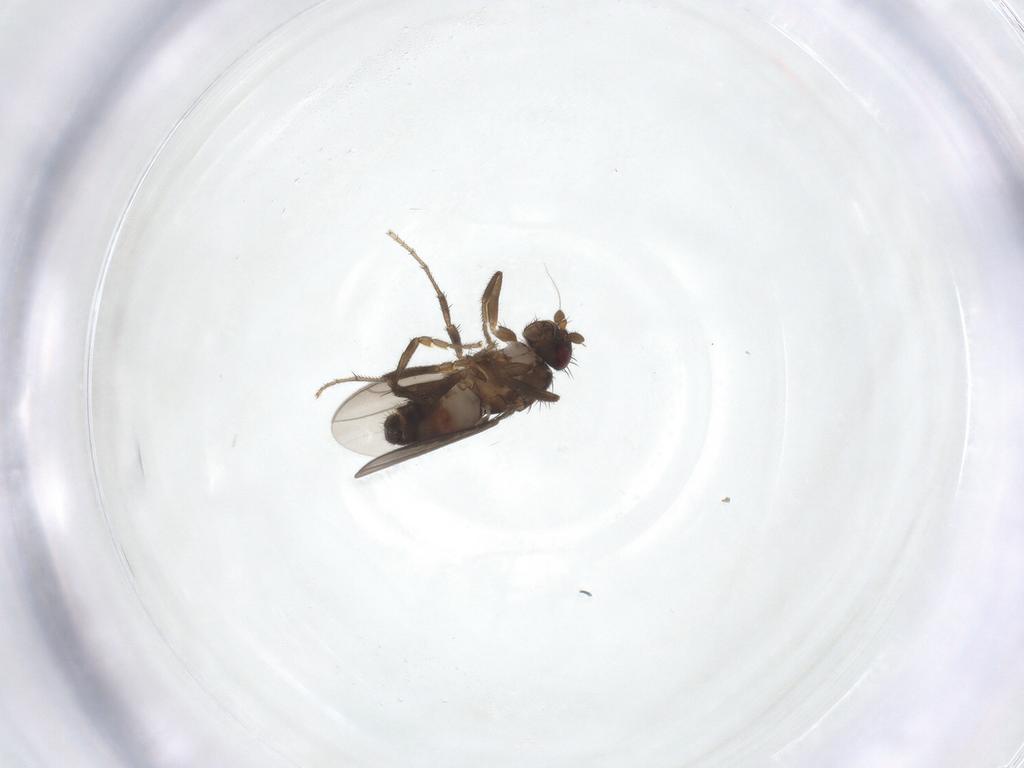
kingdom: Animalia
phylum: Arthropoda
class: Insecta
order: Diptera
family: Sphaeroceridae
